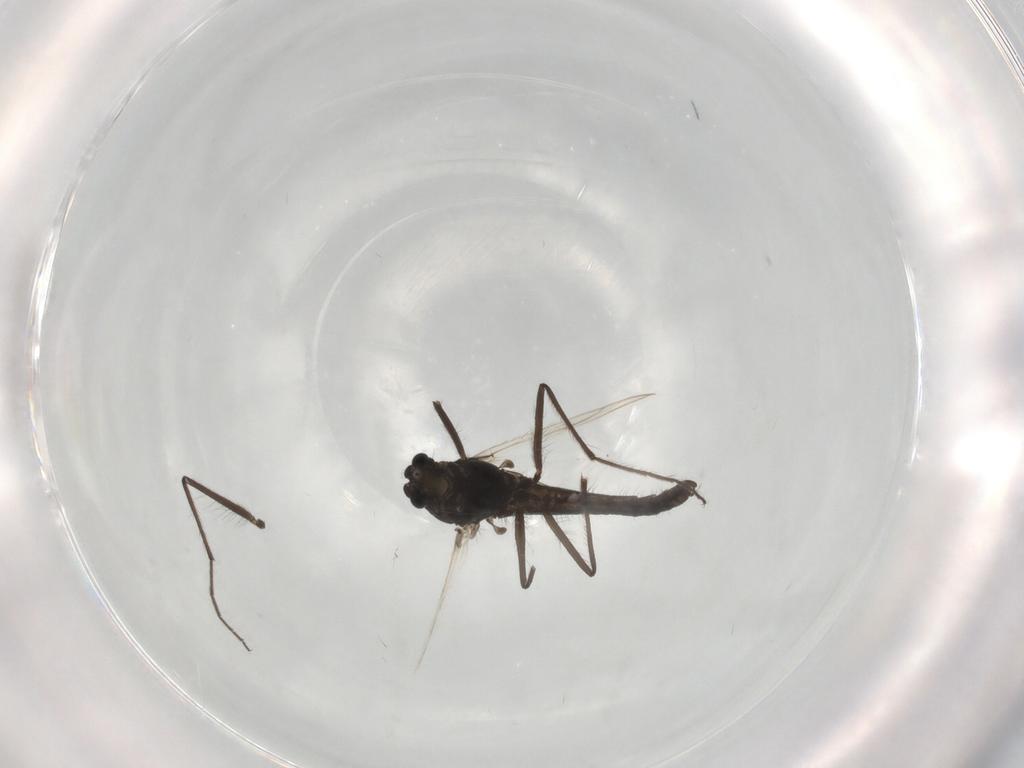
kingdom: Animalia
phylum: Arthropoda
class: Insecta
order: Diptera
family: Chironomidae
